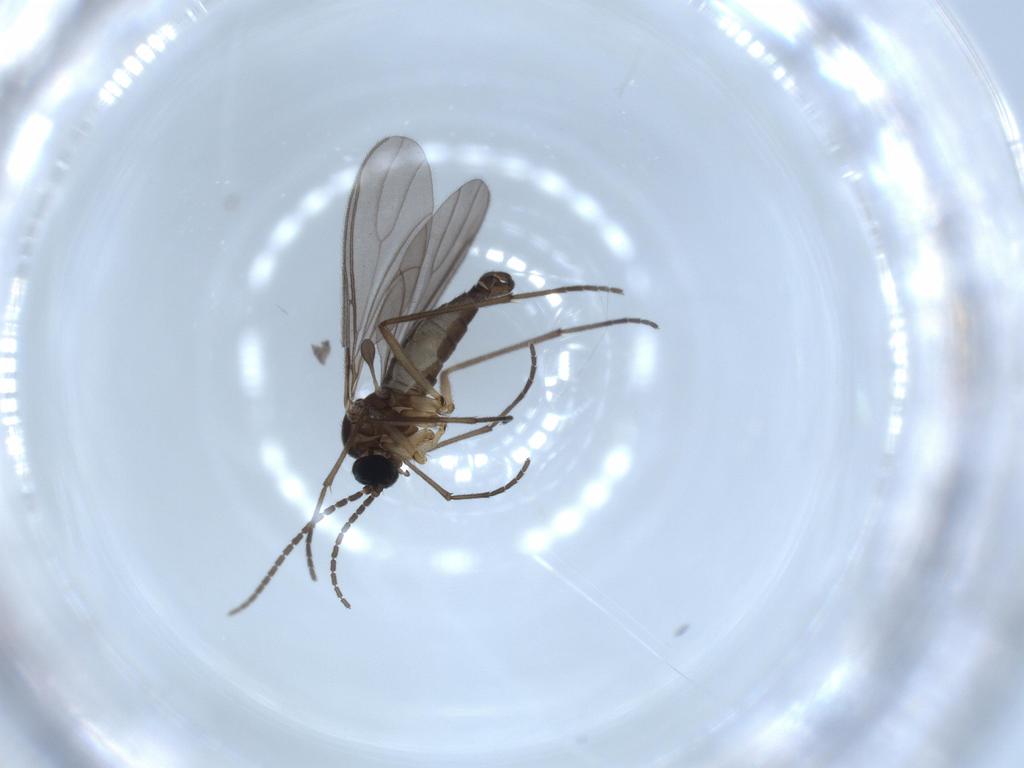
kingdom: Animalia
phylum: Arthropoda
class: Insecta
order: Diptera
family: Sciaridae
